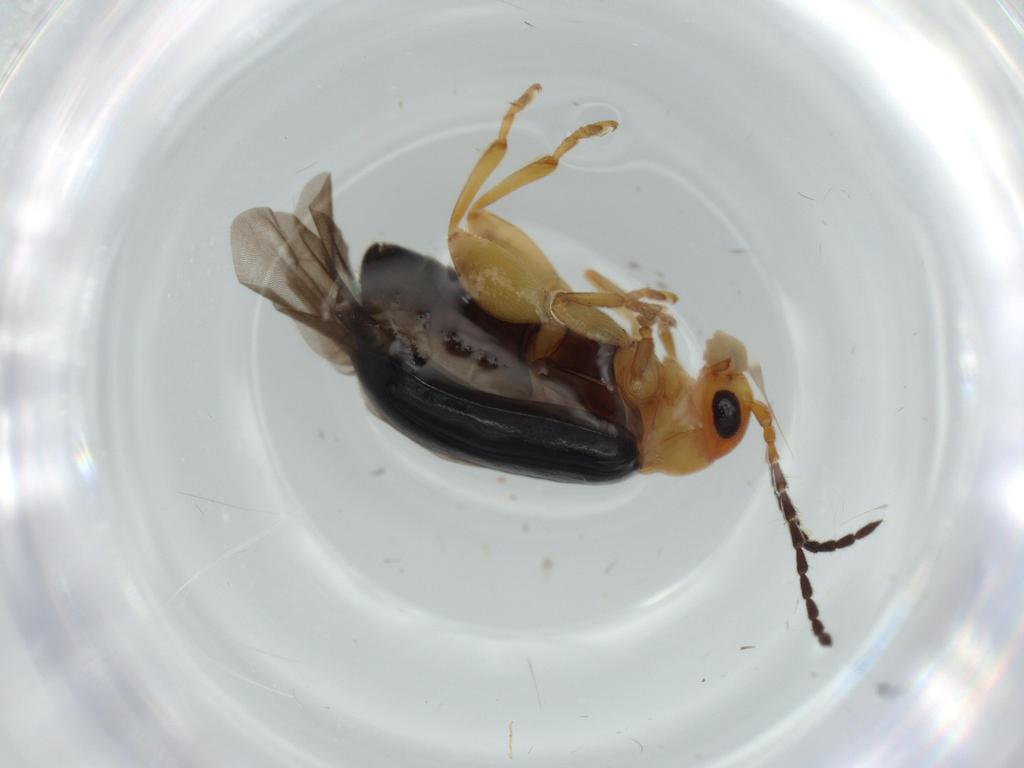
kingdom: Animalia
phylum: Arthropoda
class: Insecta
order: Coleoptera
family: Chrysomelidae
